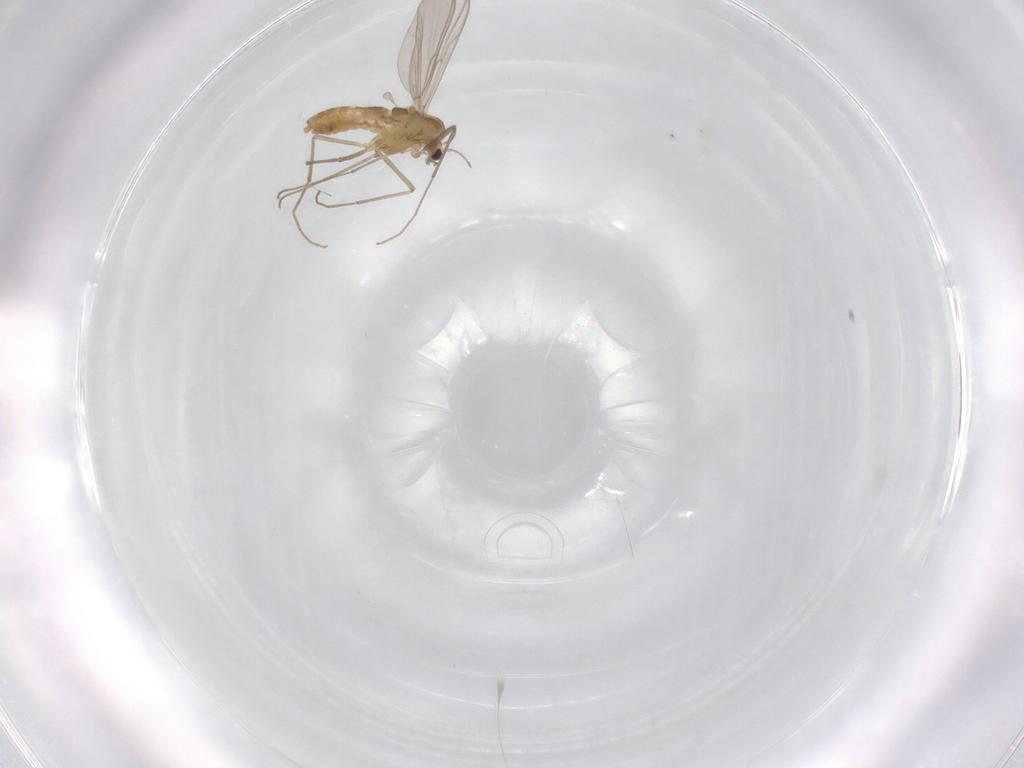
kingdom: Animalia
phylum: Arthropoda
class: Insecta
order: Diptera
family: Chironomidae
